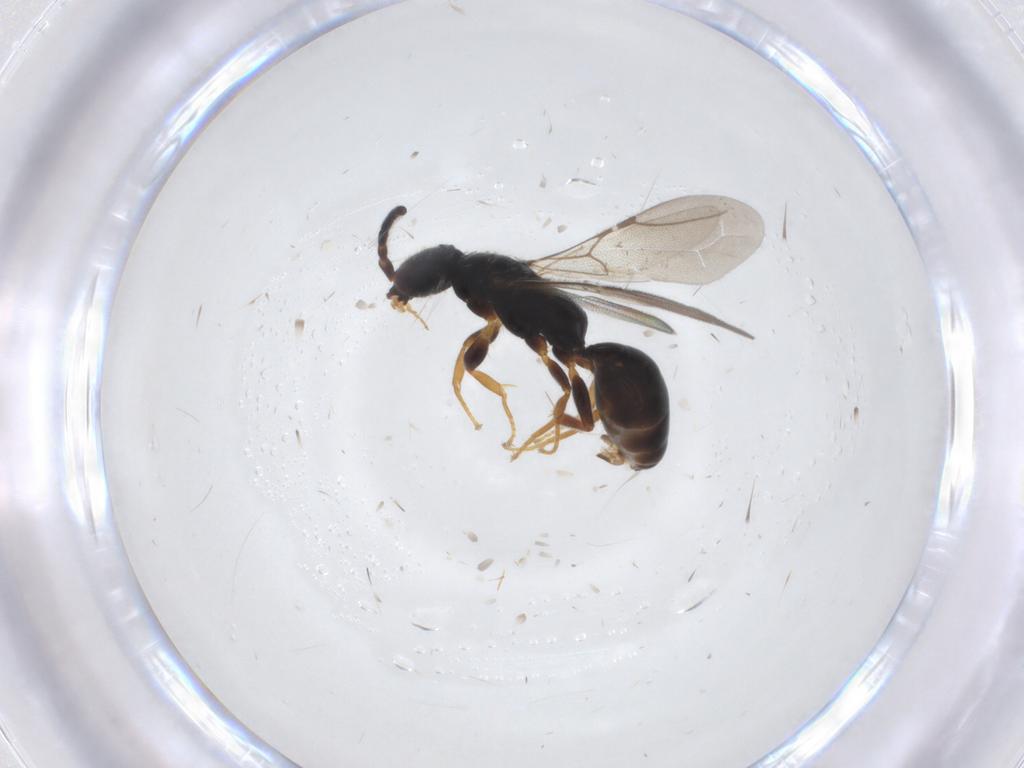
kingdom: Animalia
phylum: Arthropoda
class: Insecta
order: Hymenoptera
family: Bethylidae
